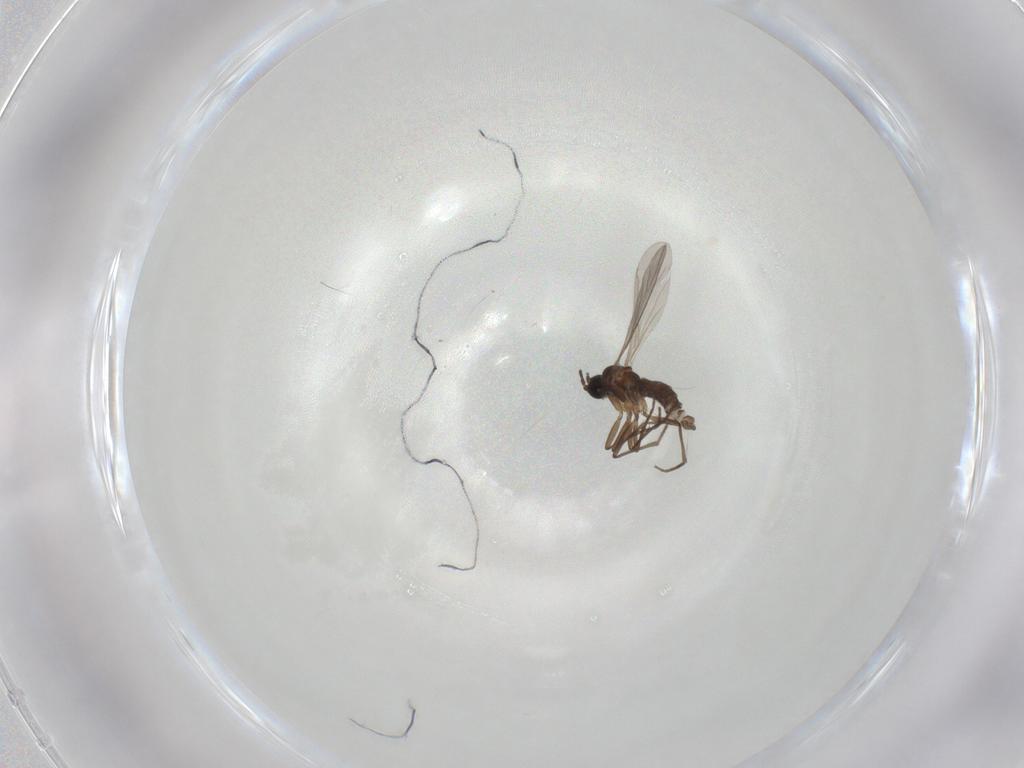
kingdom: Animalia
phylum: Arthropoda
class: Insecta
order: Diptera
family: Sciaridae
